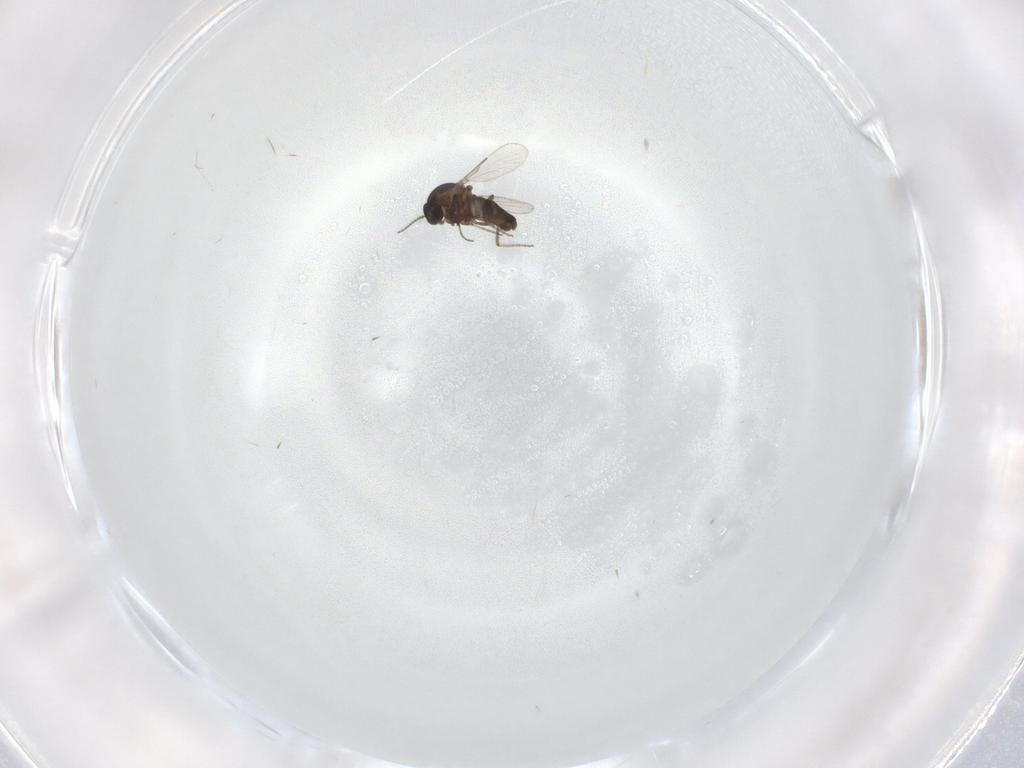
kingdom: Animalia
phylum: Arthropoda
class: Insecta
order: Diptera
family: Ceratopogonidae
